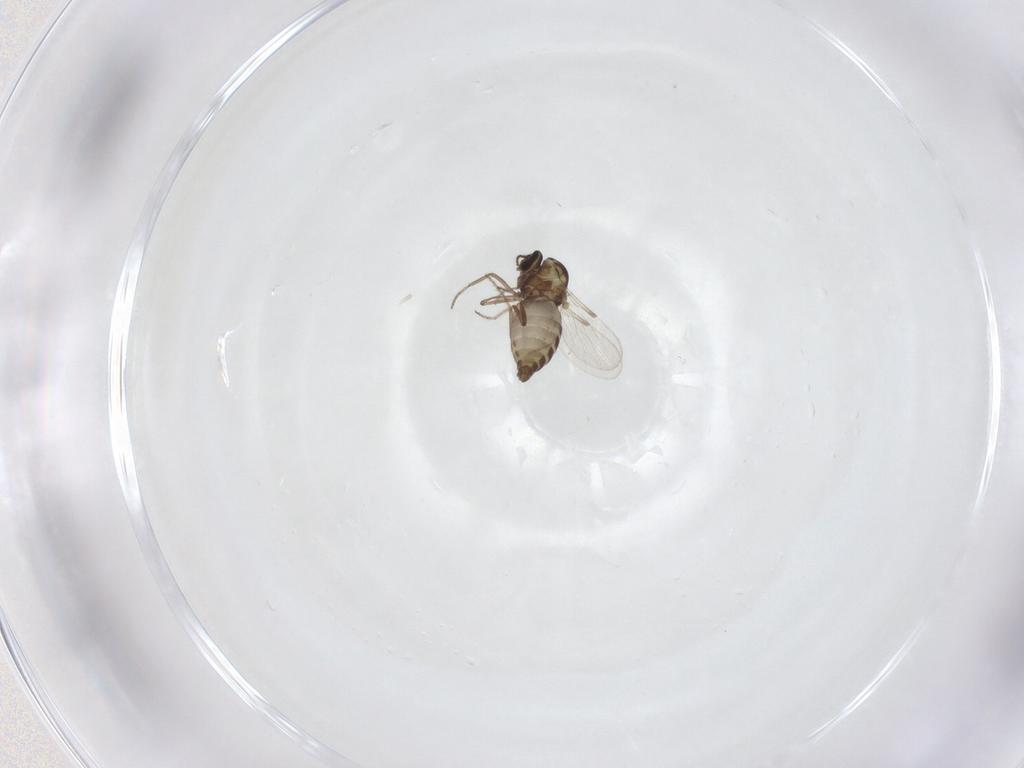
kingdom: Animalia
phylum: Arthropoda
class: Insecta
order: Diptera
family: Ceratopogonidae
